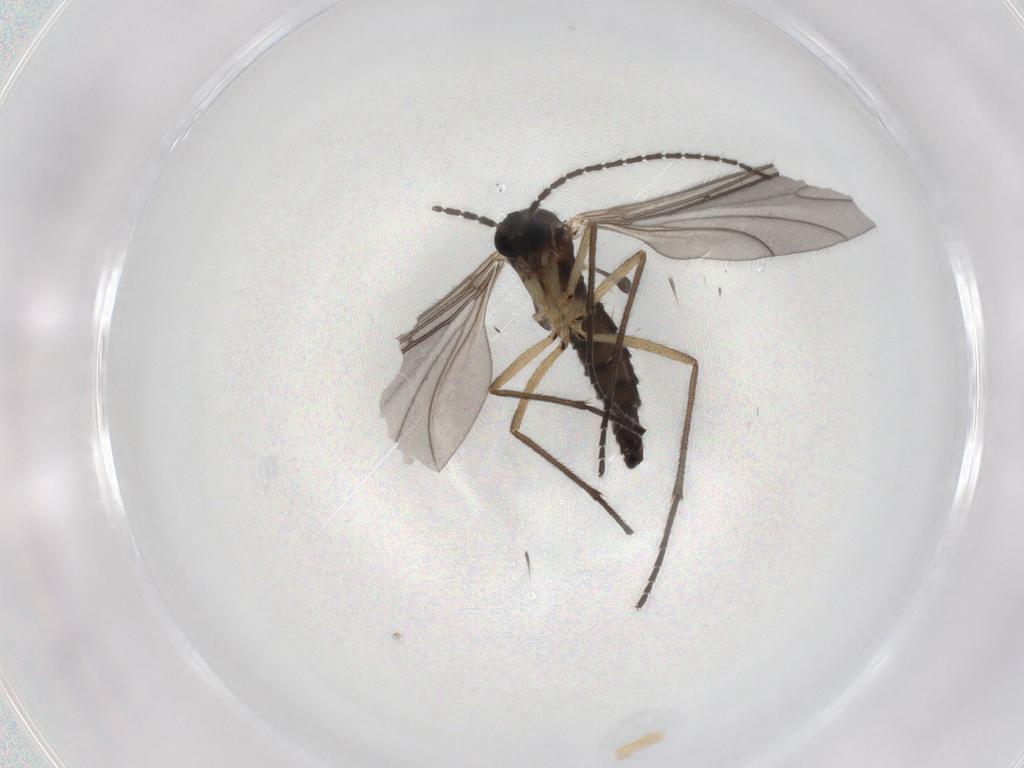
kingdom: Animalia
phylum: Arthropoda
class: Insecta
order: Diptera
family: Sciaridae
